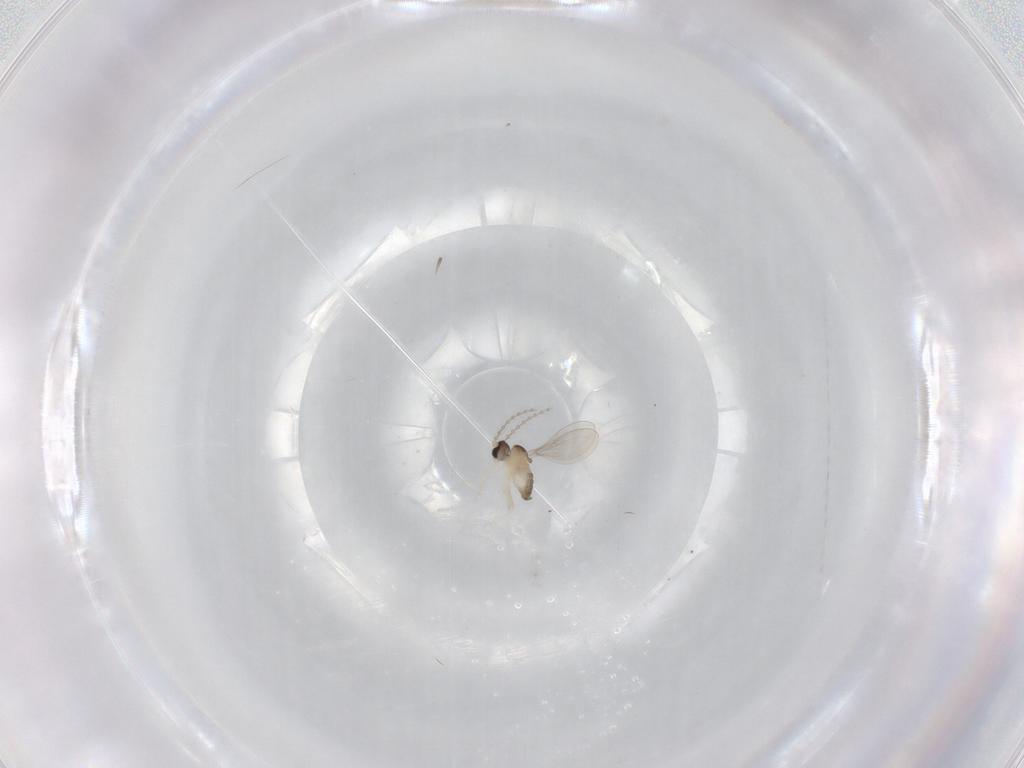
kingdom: Animalia
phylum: Arthropoda
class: Insecta
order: Diptera
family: Cecidomyiidae
